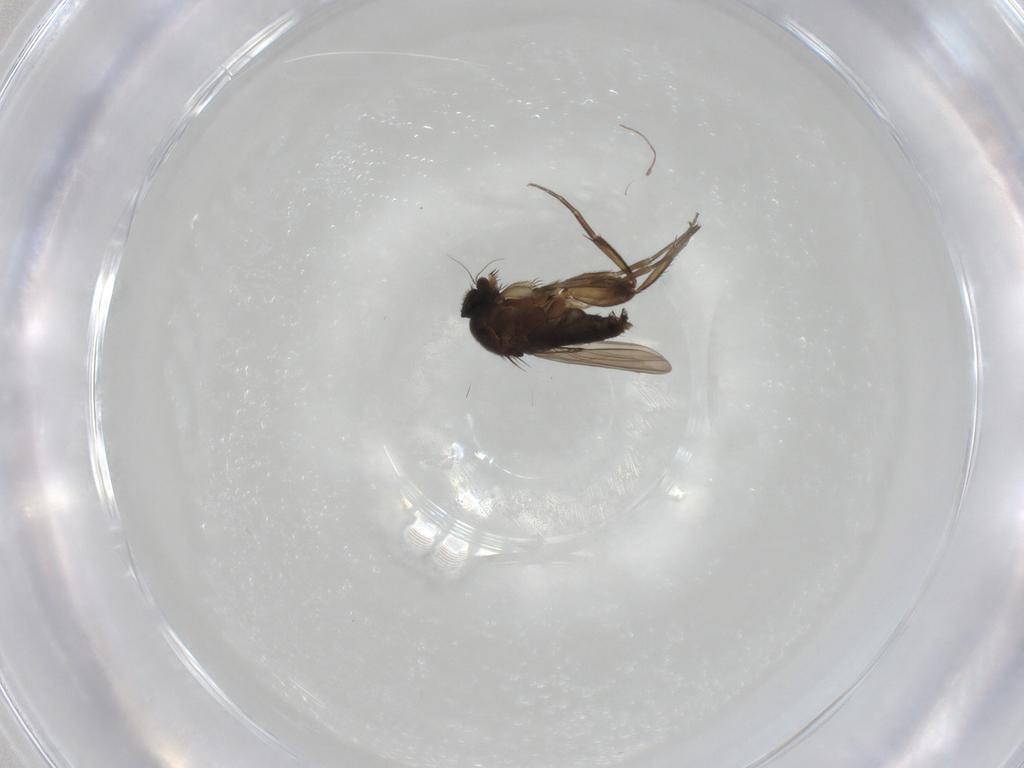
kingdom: Animalia
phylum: Arthropoda
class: Insecta
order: Diptera
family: Phoridae
